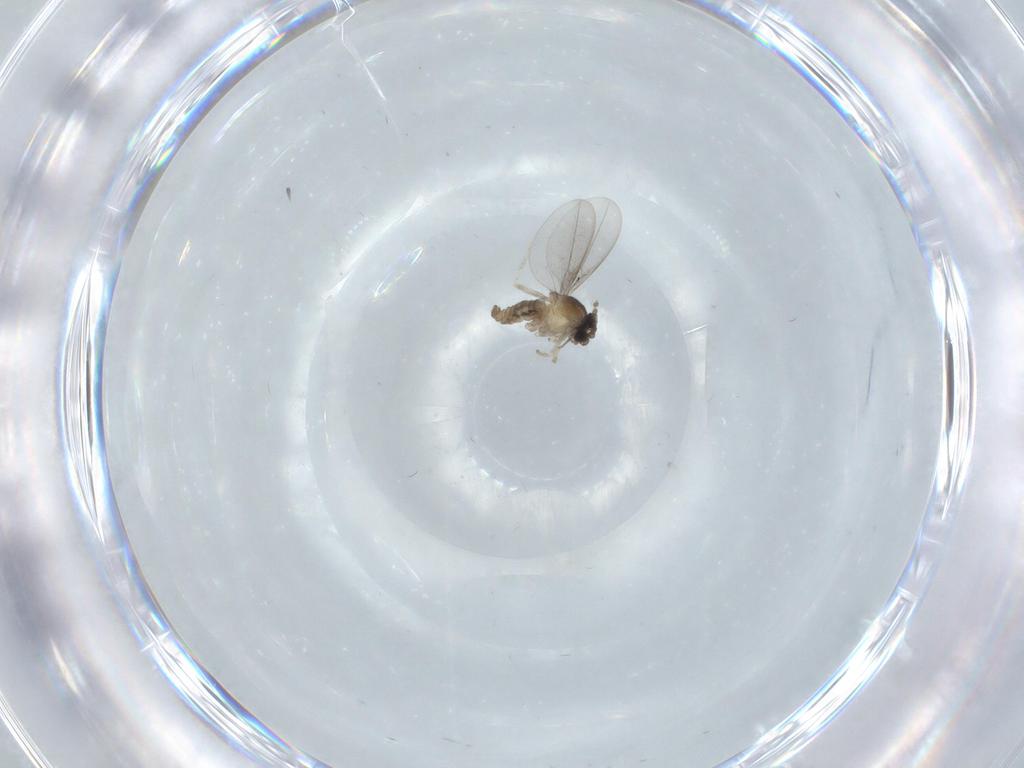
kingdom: Animalia
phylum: Arthropoda
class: Insecta
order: Diptera
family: Cecidomyiidae
